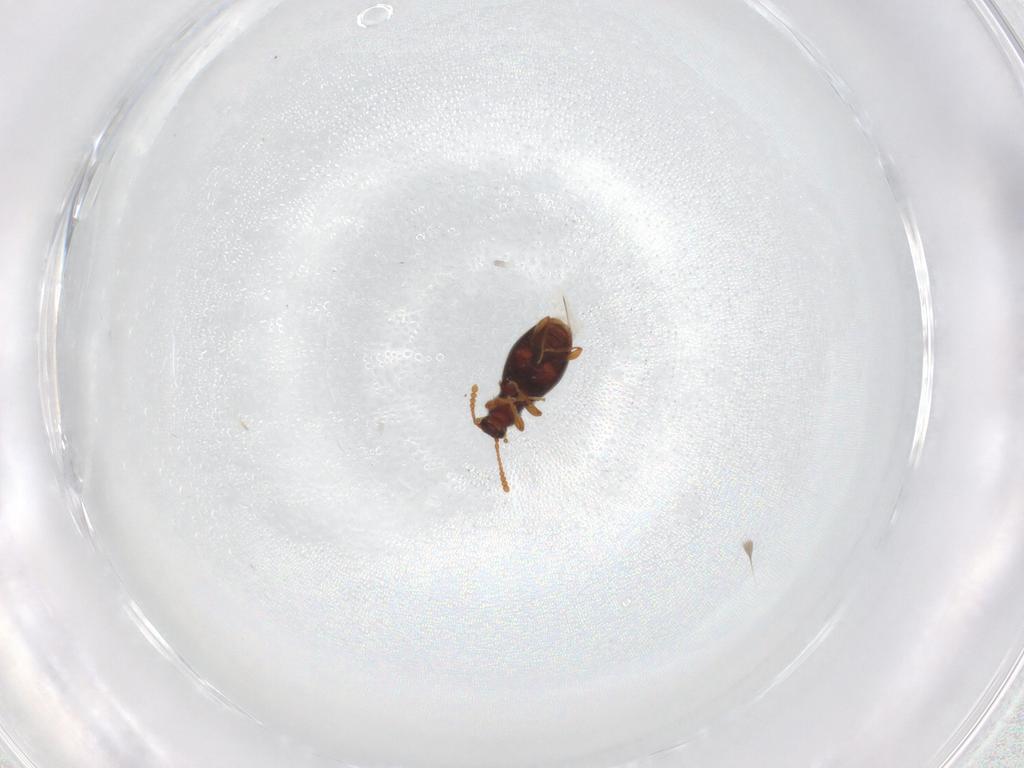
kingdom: Animalia
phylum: Arthropoda
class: Insecta
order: Coleoptera
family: Staphylinidae
